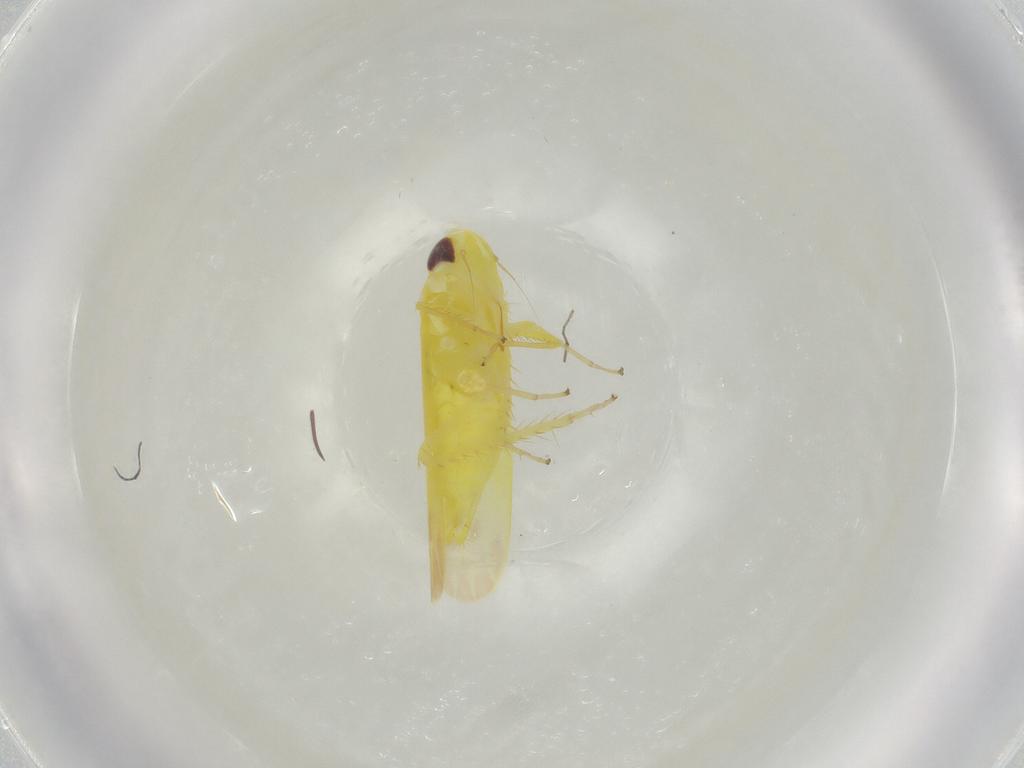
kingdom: Animalia
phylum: Arthropoda
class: Insecta
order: Hemiptera
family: Cicadellidae
